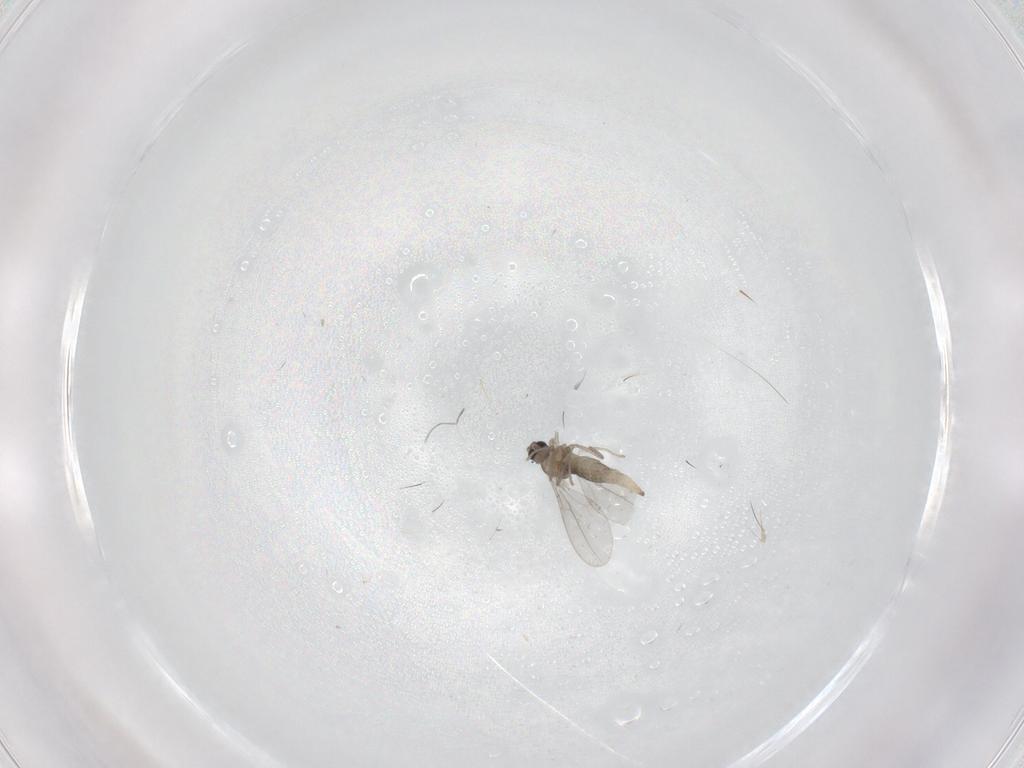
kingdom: Animalia
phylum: Arthropoda
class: Insecta
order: Diptera
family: Cecidomyiidae
